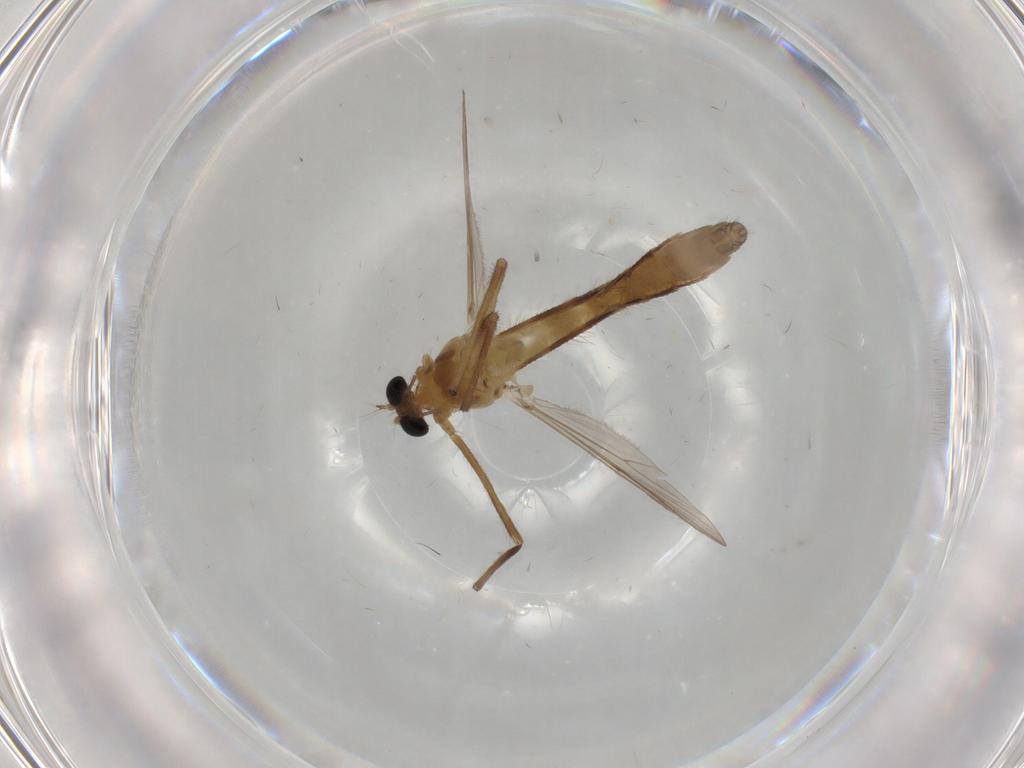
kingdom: Animalia
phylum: Arthropoda
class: Insecta
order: Diptera
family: Chironomidae
